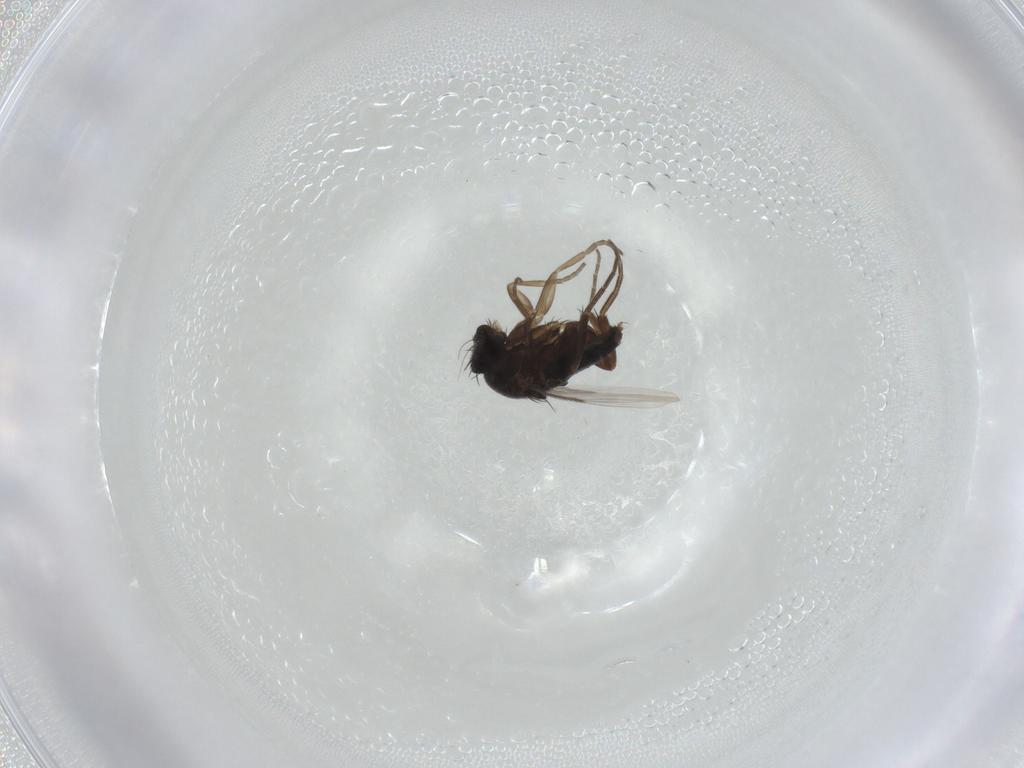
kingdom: Animalia
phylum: Arthropoda
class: Insecta
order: Diptera
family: Phoridae
